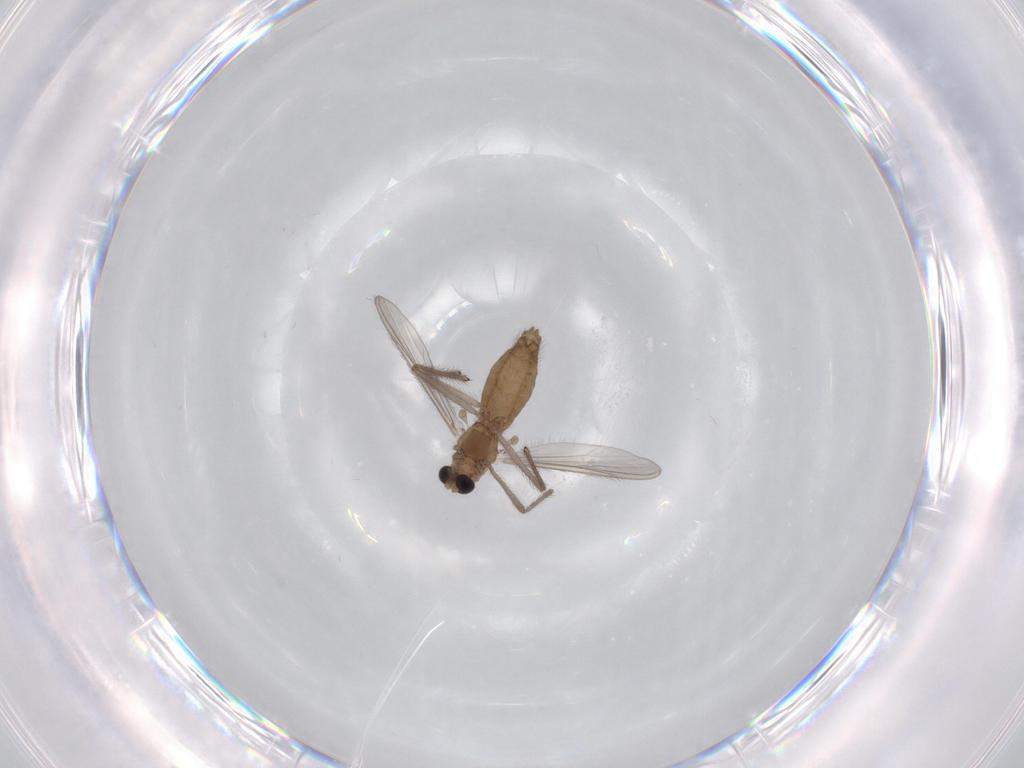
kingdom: Animalia
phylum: Arthropoda
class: Insecta
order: Diptera
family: Chironomidae
